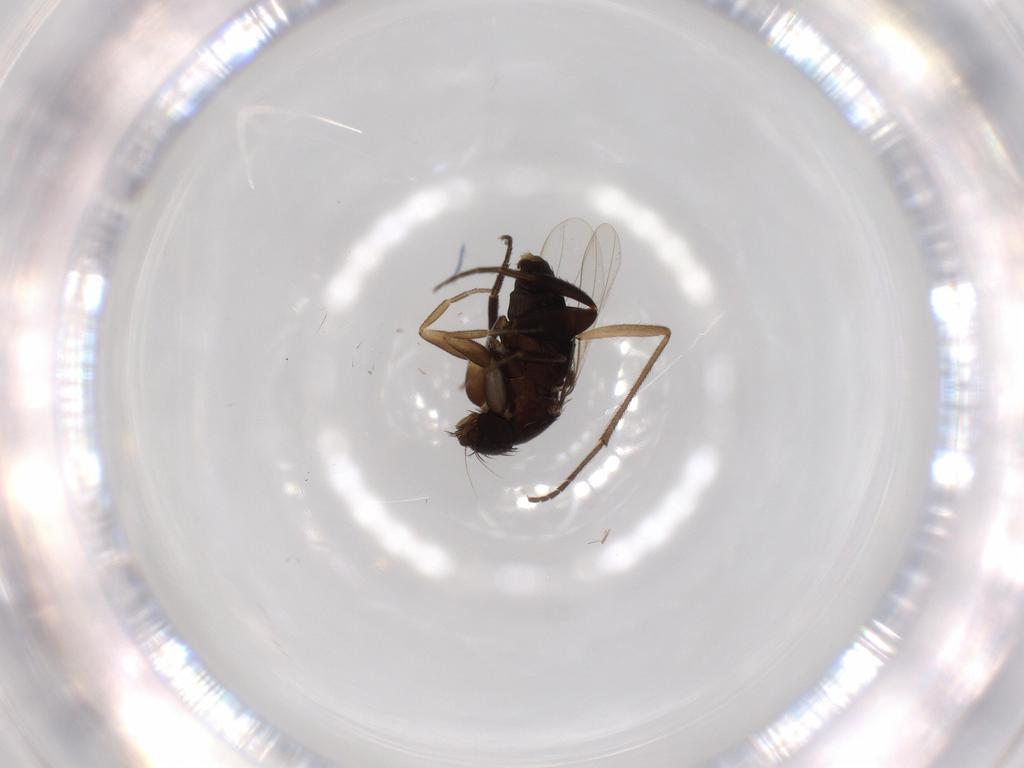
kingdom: Animalia
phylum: Arthropoda
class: Insecta
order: Diptera
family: Phoridae
